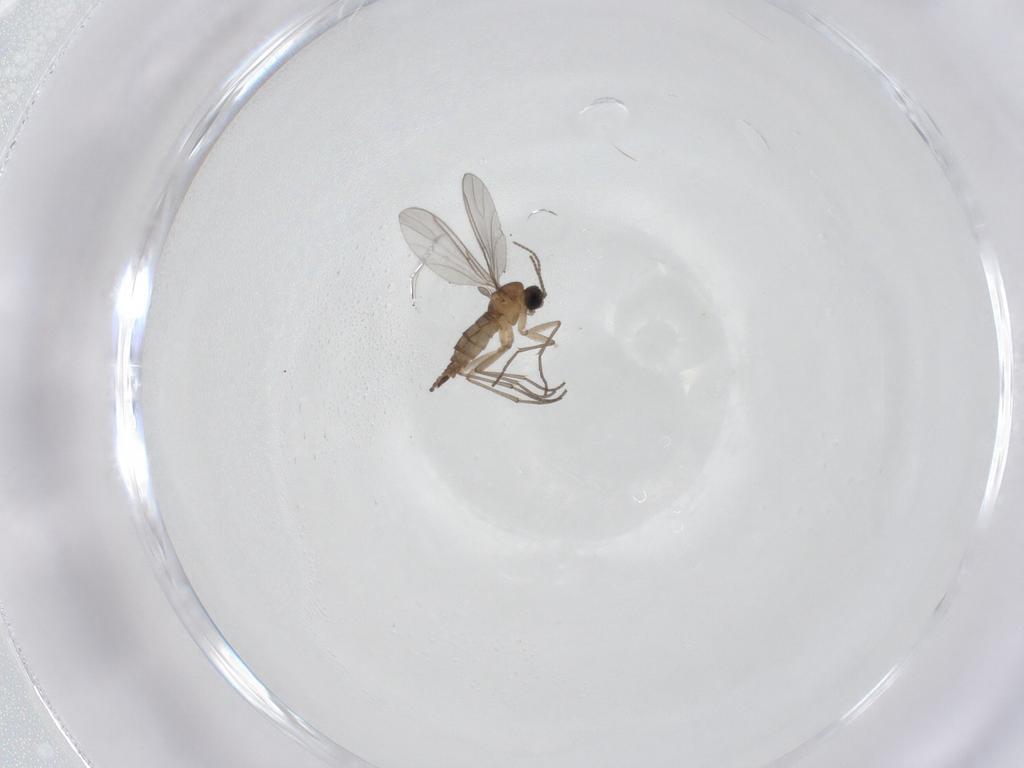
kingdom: Animalia
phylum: Arthropoda
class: Insecta
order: Diptera
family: Sciaridae
